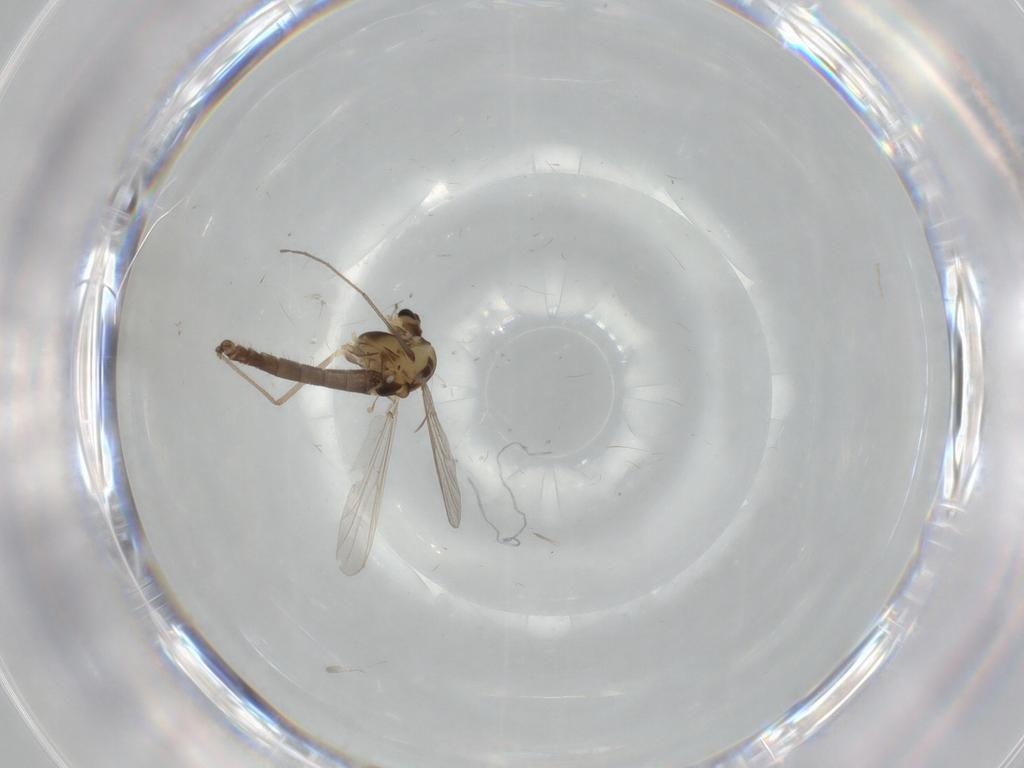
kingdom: Animalia
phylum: Arthropoda
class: Insecta
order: Diptera
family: Chironomidae
